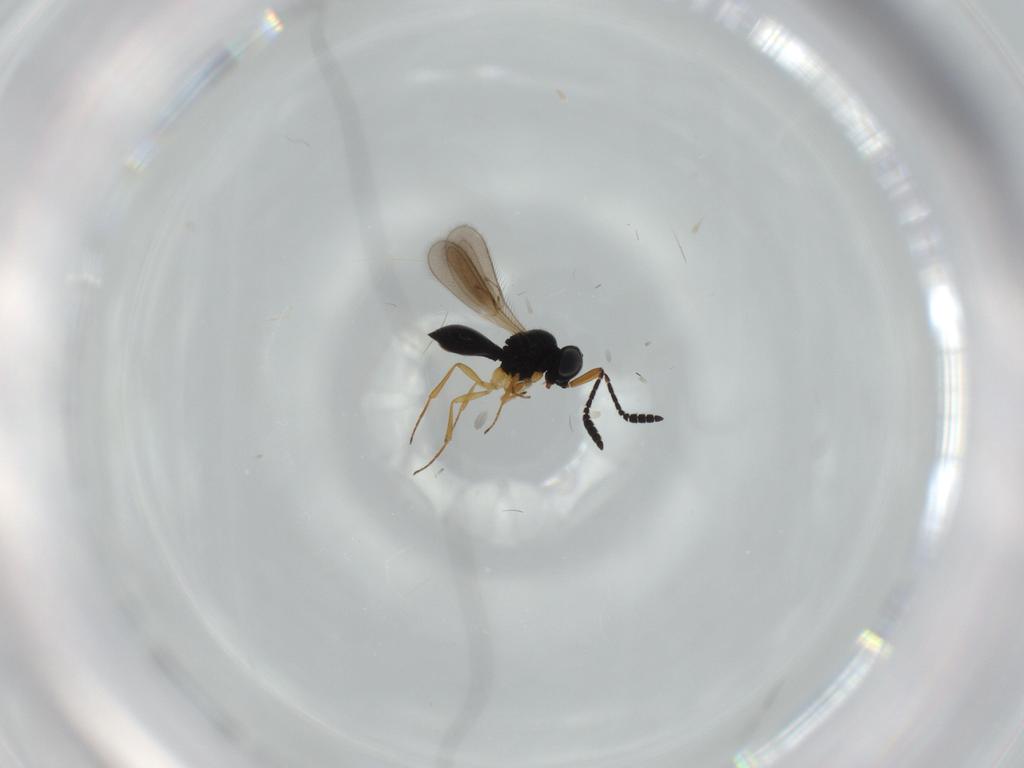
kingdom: Animalia
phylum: Arthropoda
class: Insecta
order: Hymenoptera
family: Scelionidae
